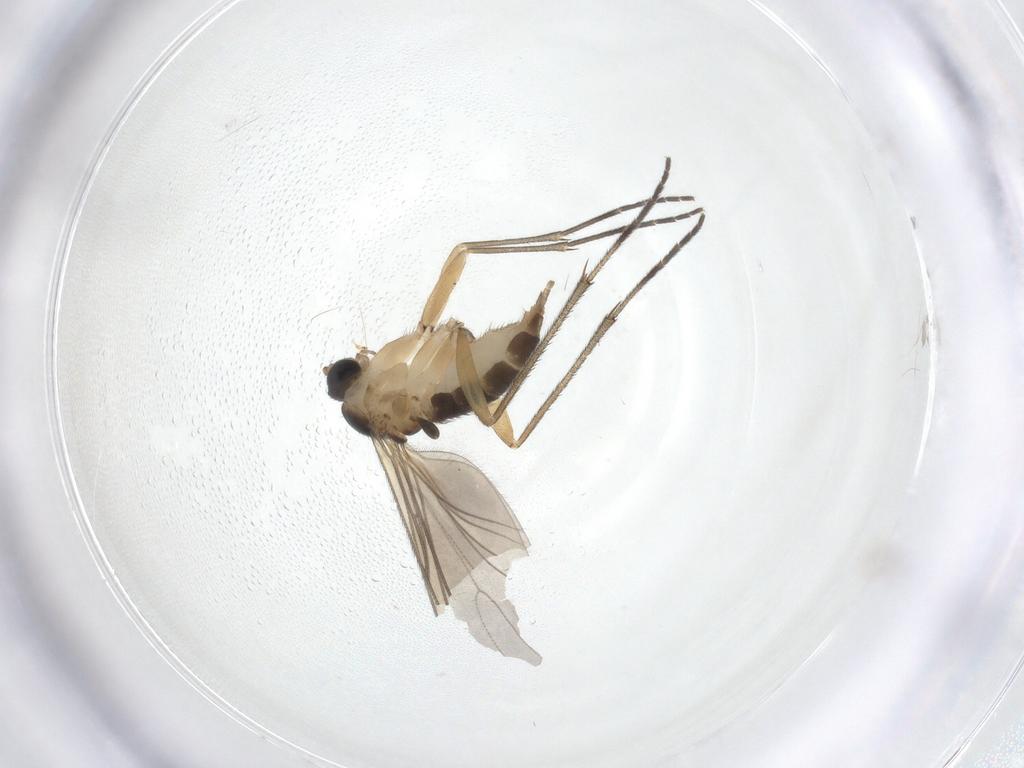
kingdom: Animalia
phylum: Arthropoda
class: Insecta
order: Diptera
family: Sciaridae
